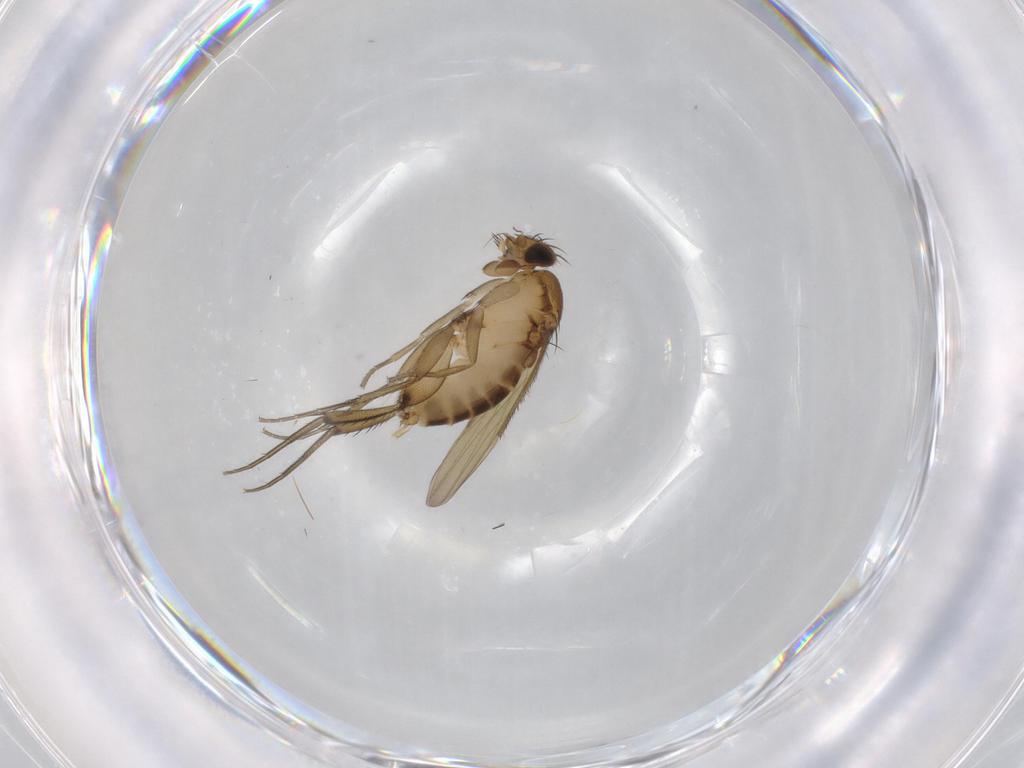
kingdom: Animalia
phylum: Arthropoda
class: Insecta
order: Diptera
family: Phoridae
